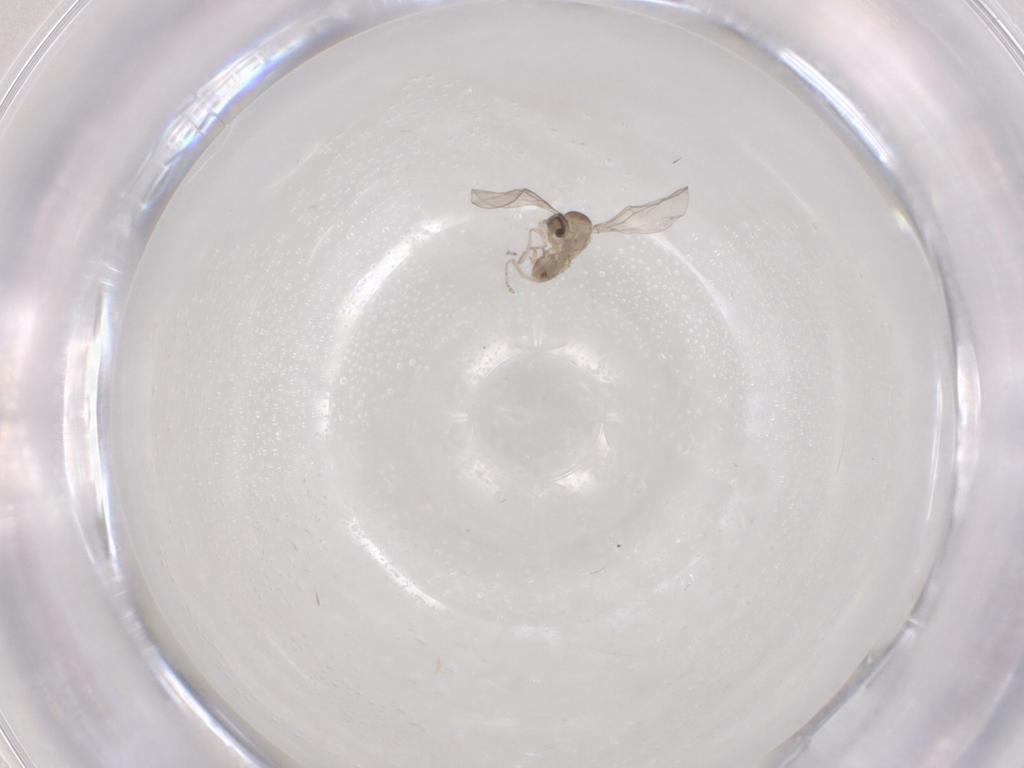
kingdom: Animalia
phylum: Arthropoda
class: Insecta
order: Diptera
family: Cecidomyiidae
